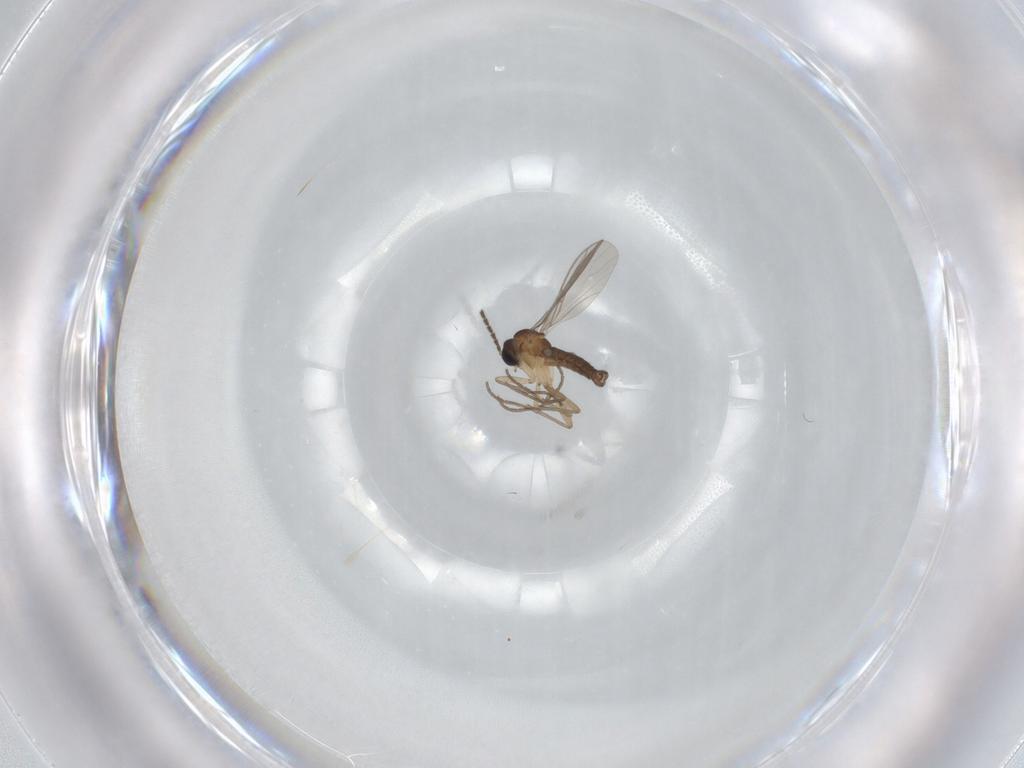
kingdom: Animalia
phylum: Arthropoda
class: Insecta
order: Diptera
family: Sciaridae
